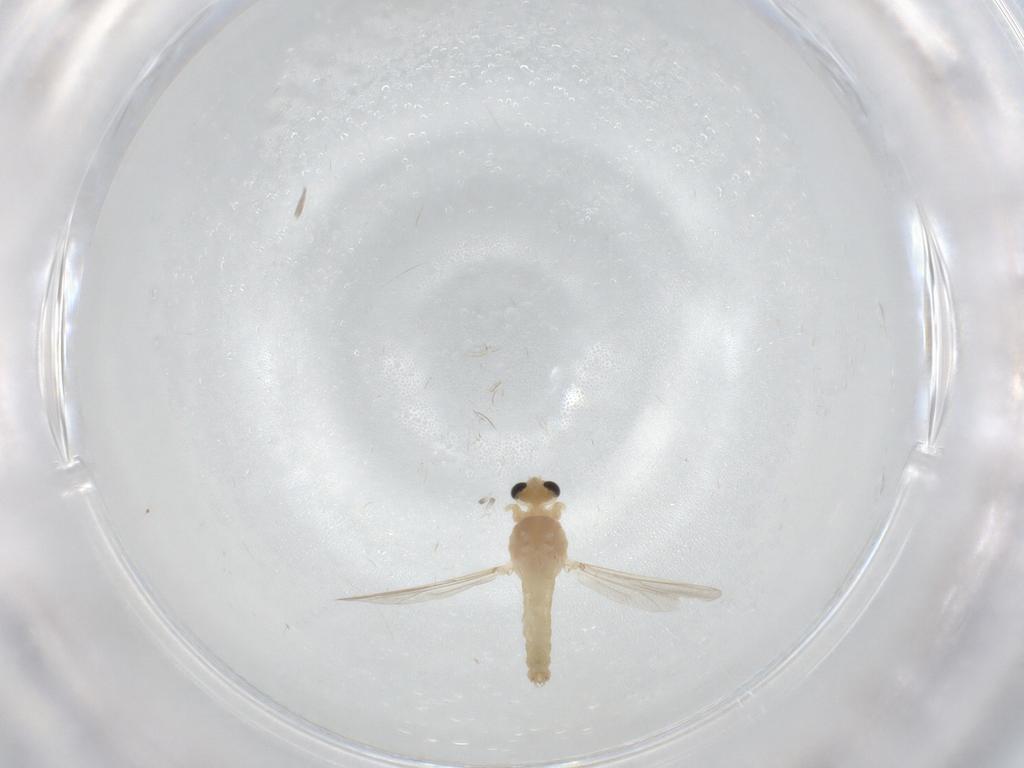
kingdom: Animalia
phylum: Arthropoda
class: Insecta
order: Diptera
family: Chironomidae
